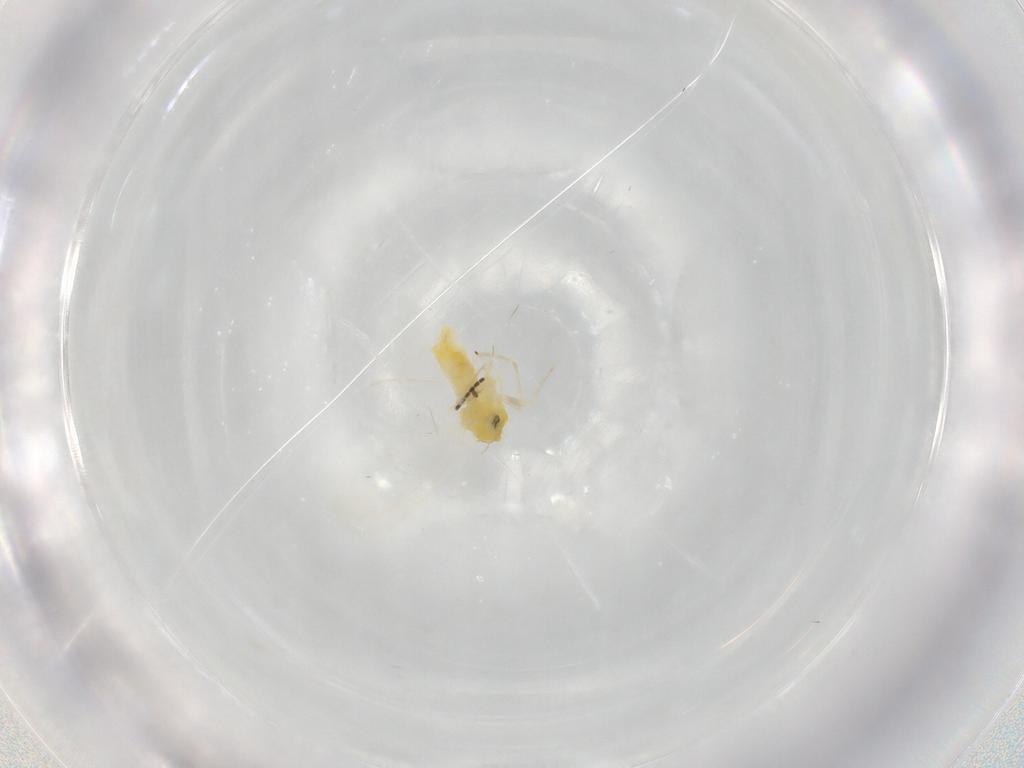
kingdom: Animalia
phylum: Arthropoda
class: Insecta
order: Hemiptera
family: Aleyrodidae
